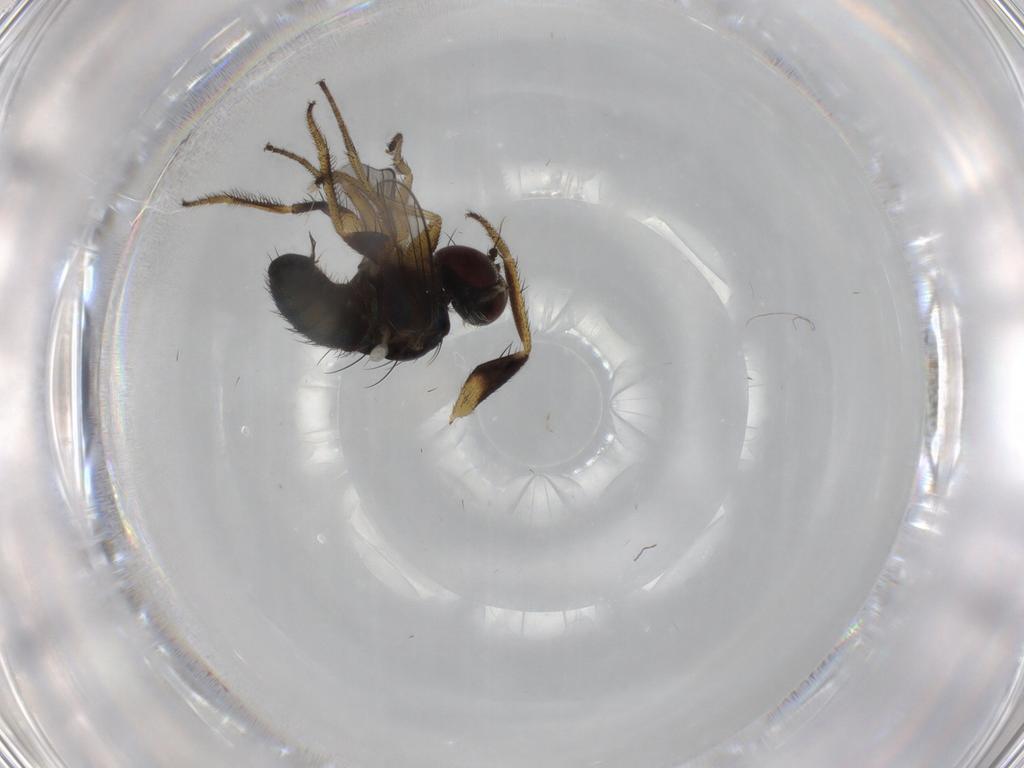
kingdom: Animalia
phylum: Arthropoda
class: Insecta
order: Diptera
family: Dolichopodidae
